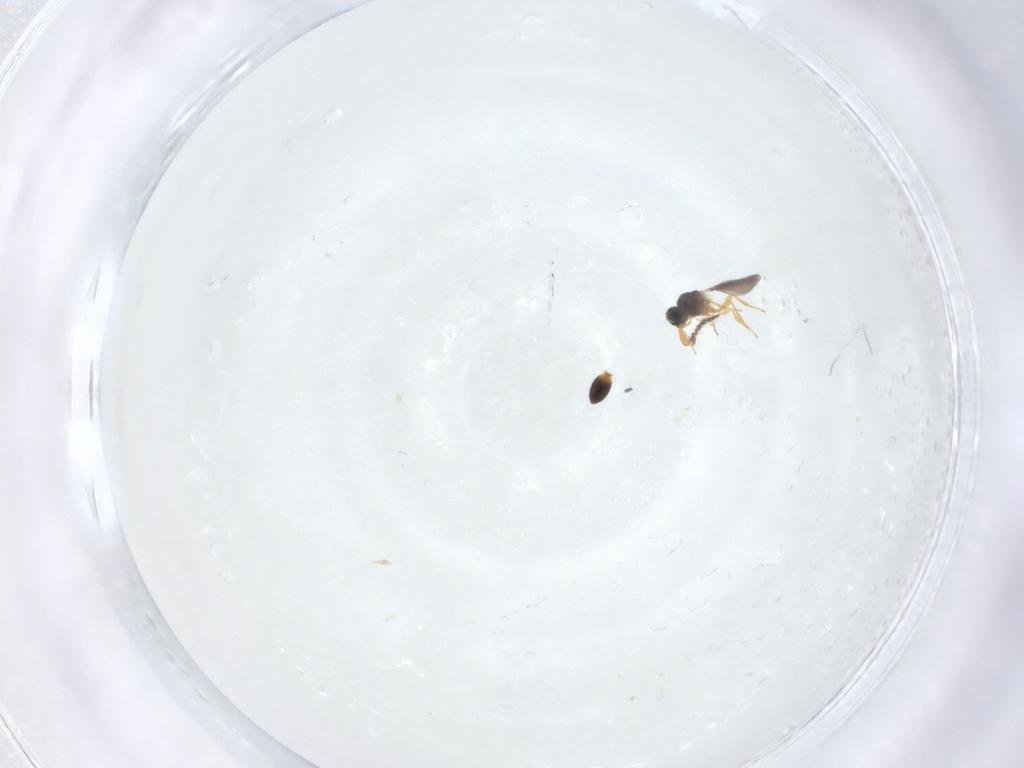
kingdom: Animalia
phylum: Arthropoda
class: Insecta
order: Hymenoptera
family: Platygastridae
